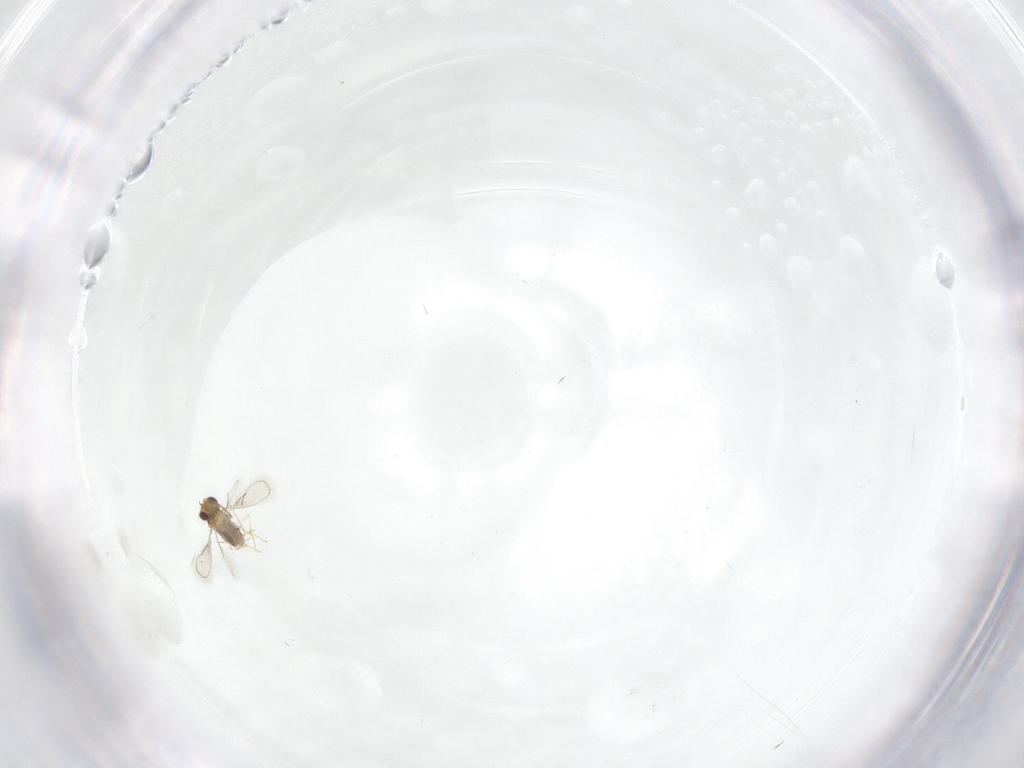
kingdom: Animalia
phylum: Arthropoda
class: Insecta
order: Hymenoptera
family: Aphelinidae
